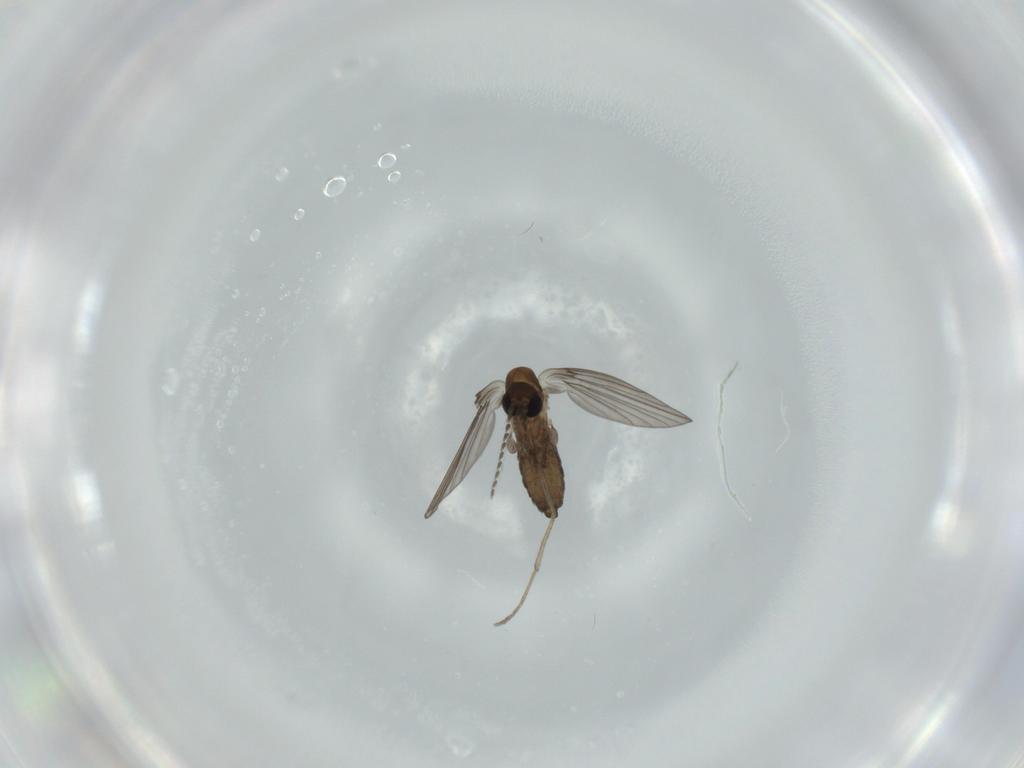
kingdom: Animalia
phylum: Arthropoda
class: Insecta
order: Diptera
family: Psychodidae
